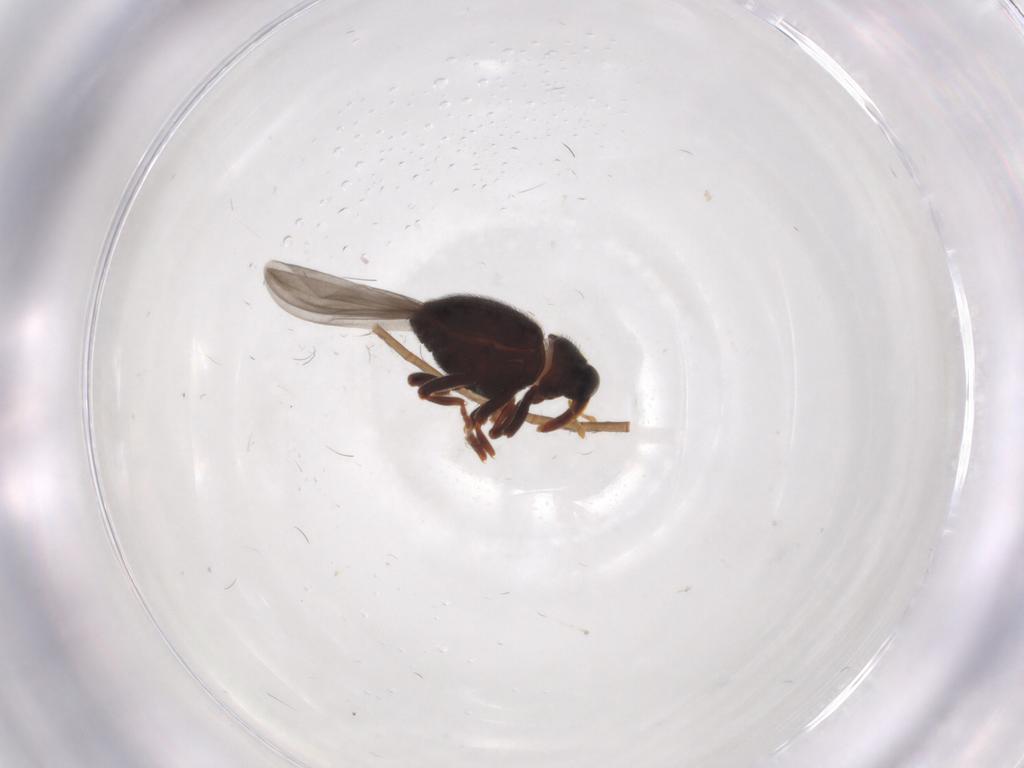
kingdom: Animalia
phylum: Arthropoda
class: Insecta
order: Coleoptera
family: Curculionidae
